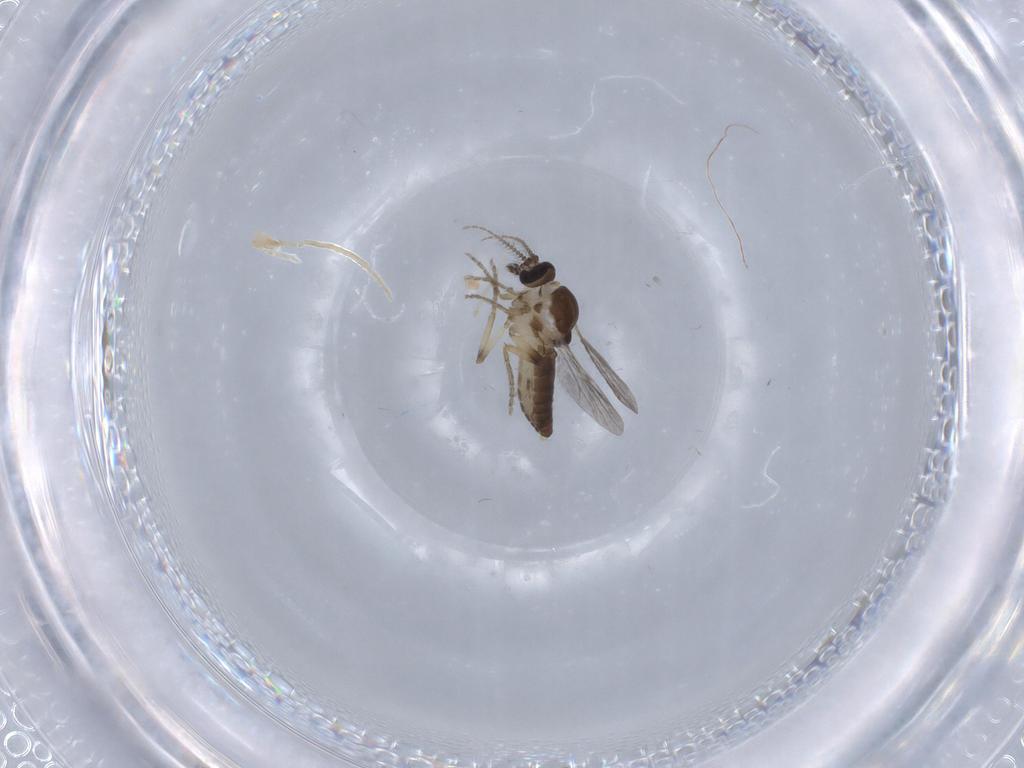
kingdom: Animalia
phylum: Arthropoda
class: Insecta
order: Diptera
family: Ceratopogonidae
